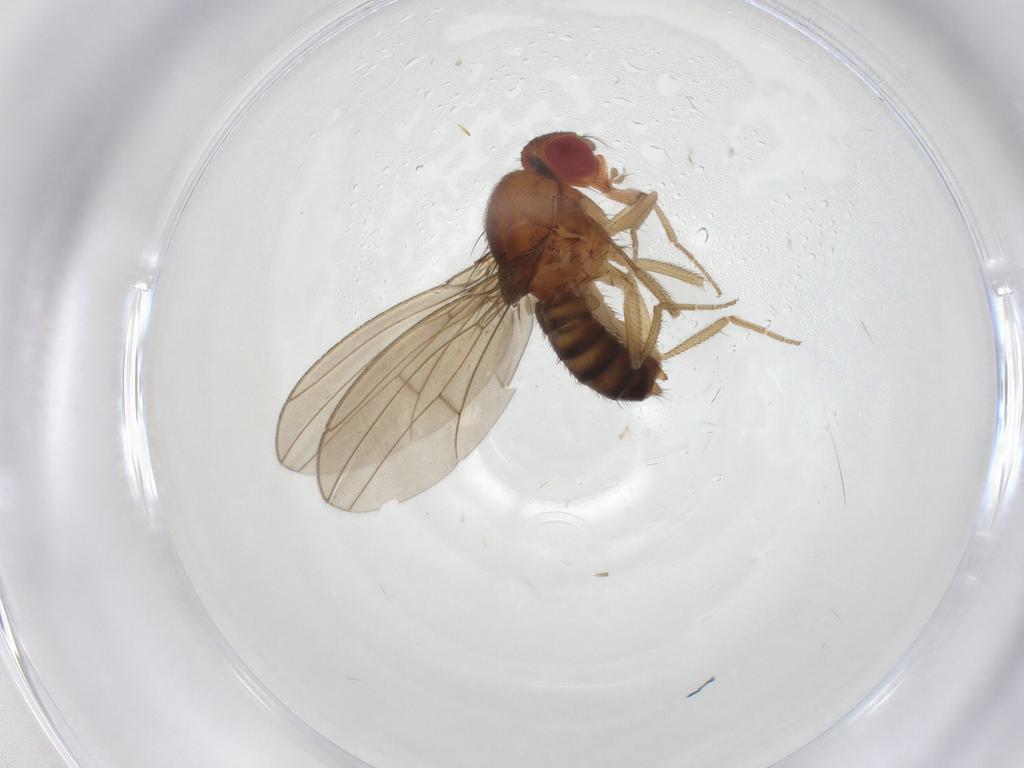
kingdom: Animalia
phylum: Arthropoda
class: Insecta
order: Diptera
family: Drosophilidae
